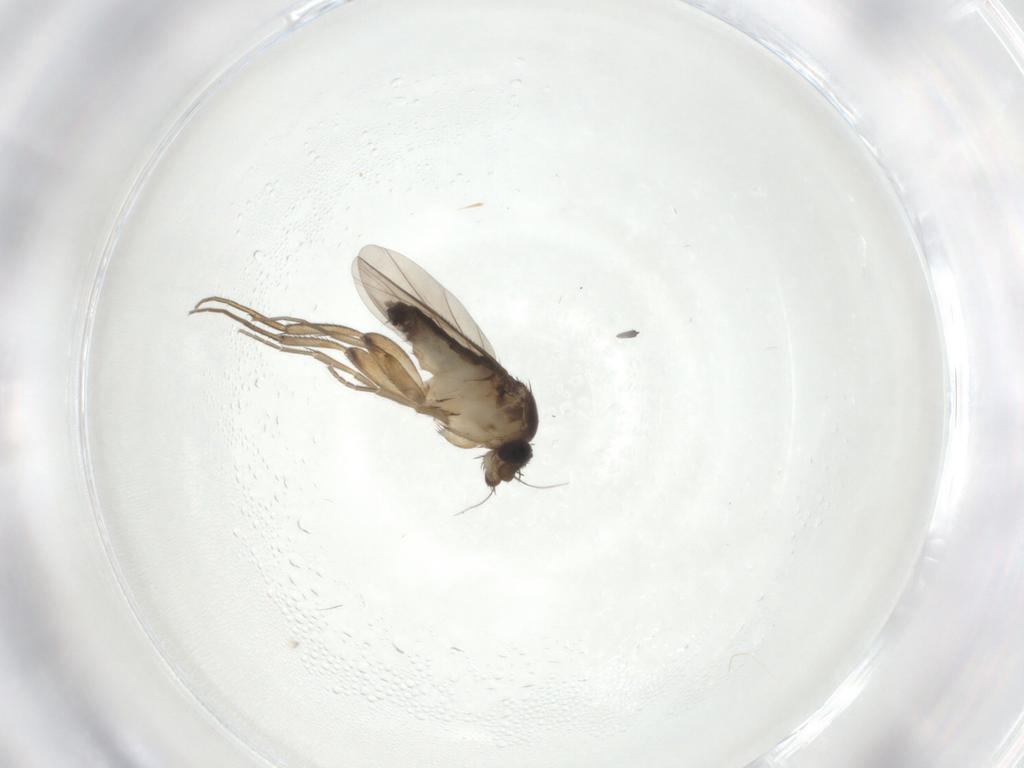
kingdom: Animalia
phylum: Arthropoda
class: Insecta
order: Diptera
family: Phoridae
